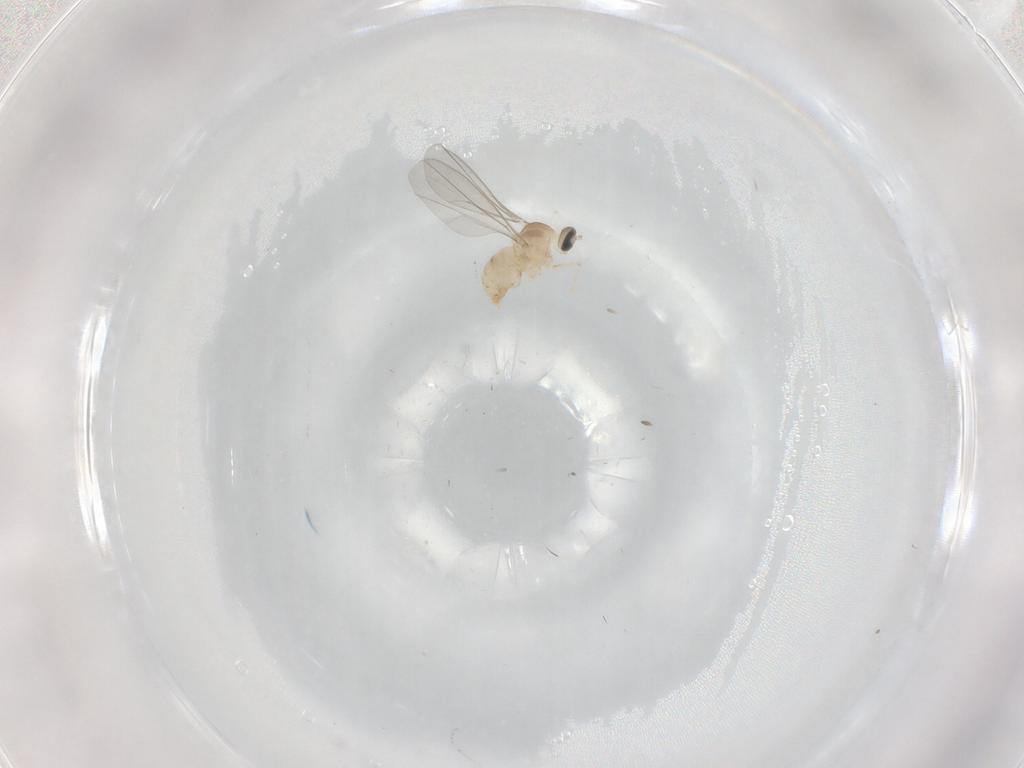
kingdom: Animalia
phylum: Arthropoda
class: Insecta
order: Diptera
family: Cecidomyiidae
